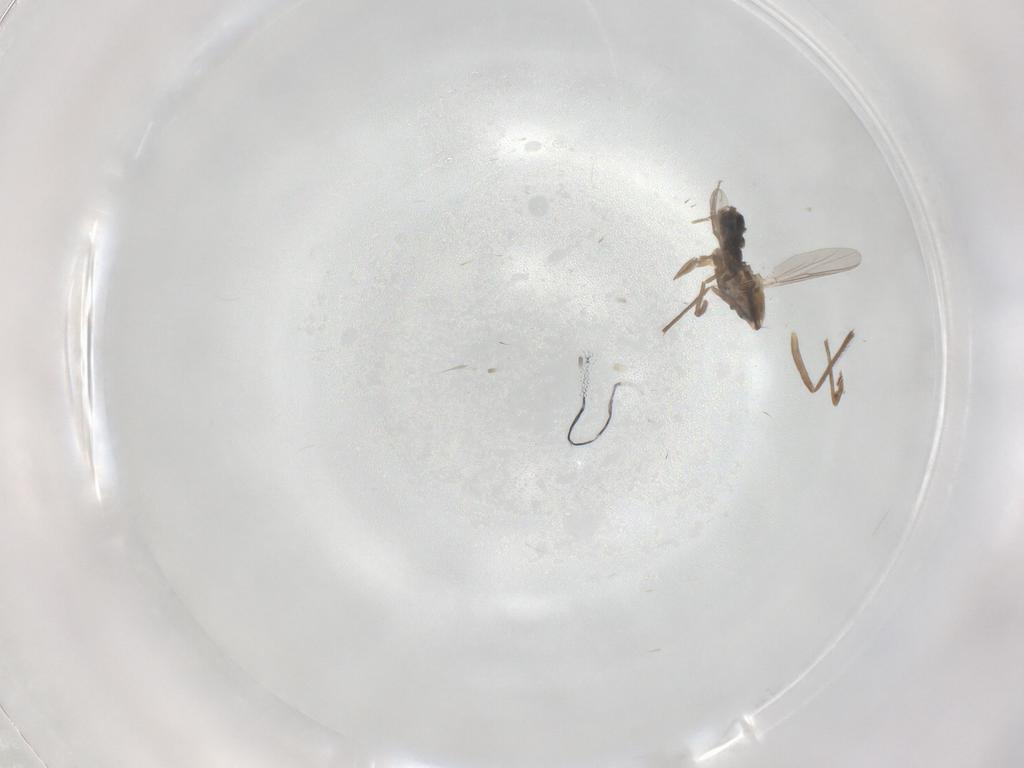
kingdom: Animalia
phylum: Arthropoda
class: Insecta
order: Diptera
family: Chironomidae
